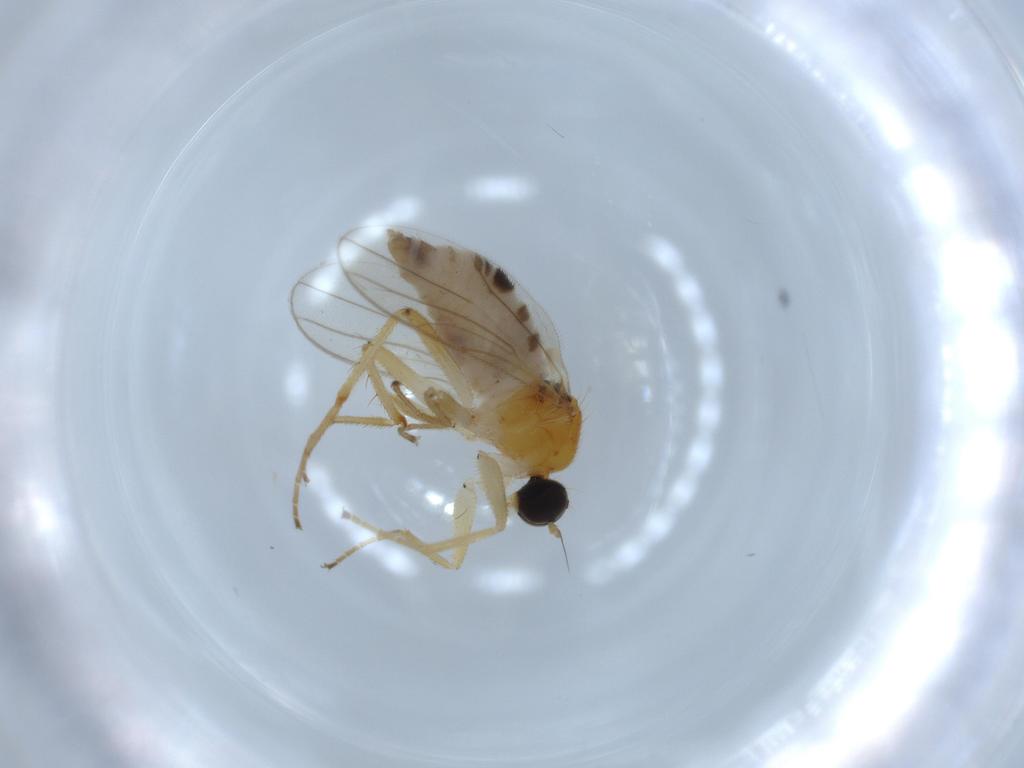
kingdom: Animalia
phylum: Arthropoda
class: Insecta
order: Diptera
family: Hybotidae
